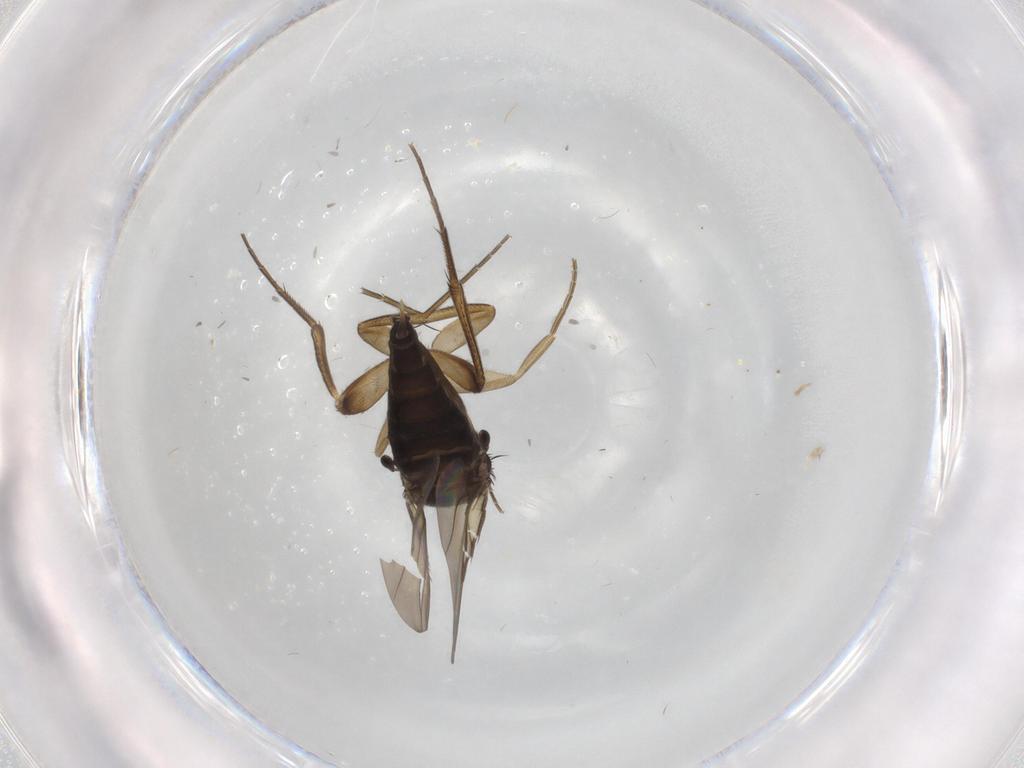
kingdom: Animalia
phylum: Arthropoda
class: Insecta
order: Diptera
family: Phoridae
